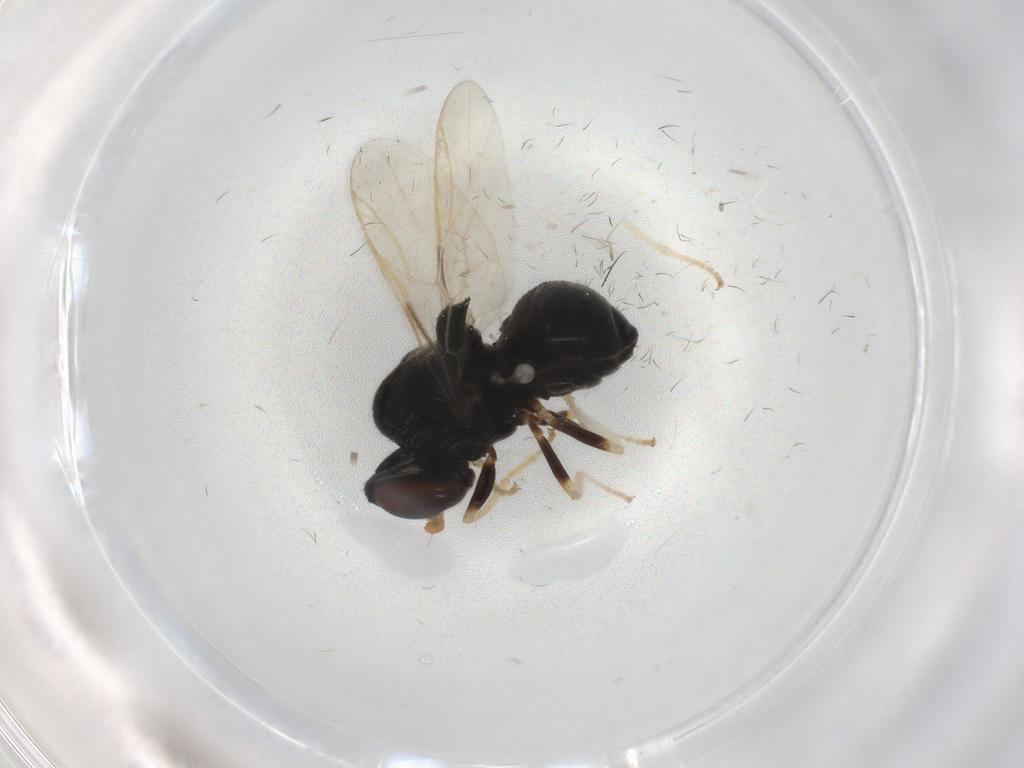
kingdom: Animalia
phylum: Arthropoda
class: Insecta
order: Diptera
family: Stratiomyidae
